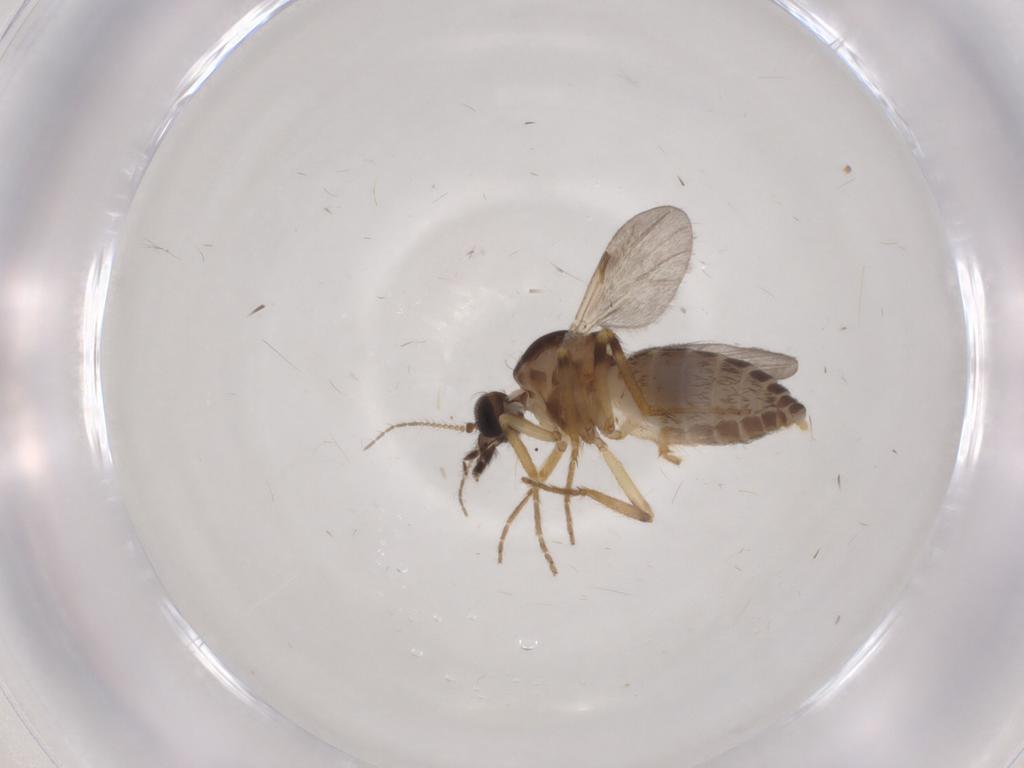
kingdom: Animalia
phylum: Arthropoda
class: Insecta
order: Diptera
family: Ceratopogonidae
